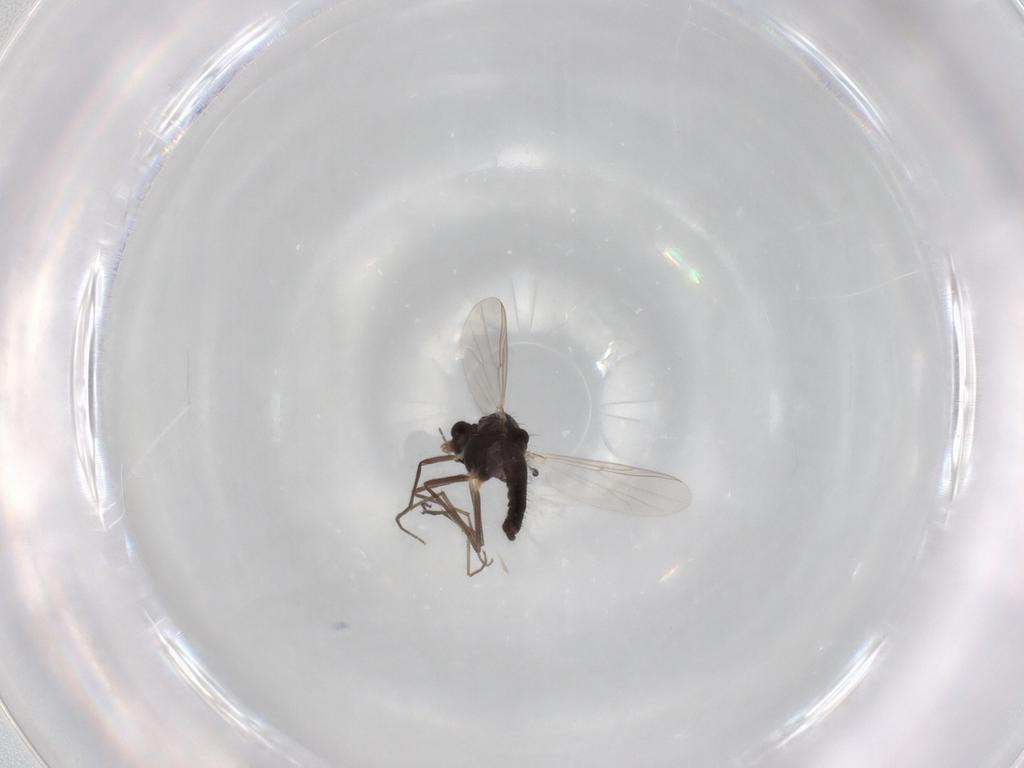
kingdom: Animalia
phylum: Arthropoda
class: Insecta
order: Diptera
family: Chironomidae
